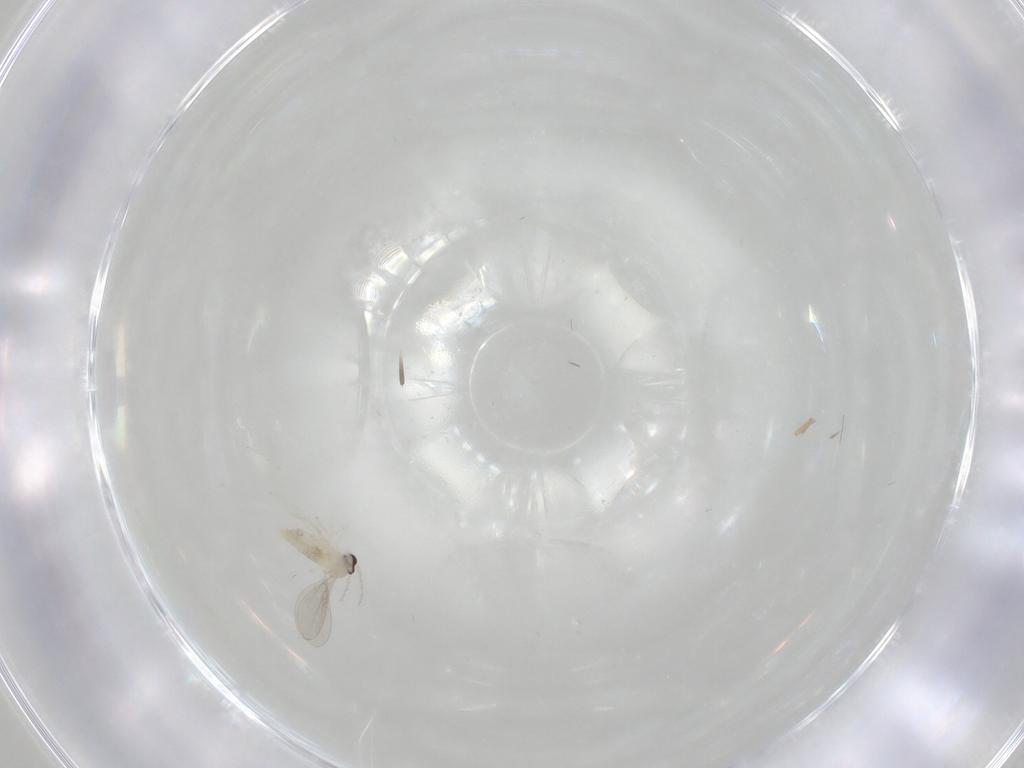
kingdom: Animalia
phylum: Arthropoda
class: Insecta
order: Diptera
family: Cecidomyiidae
